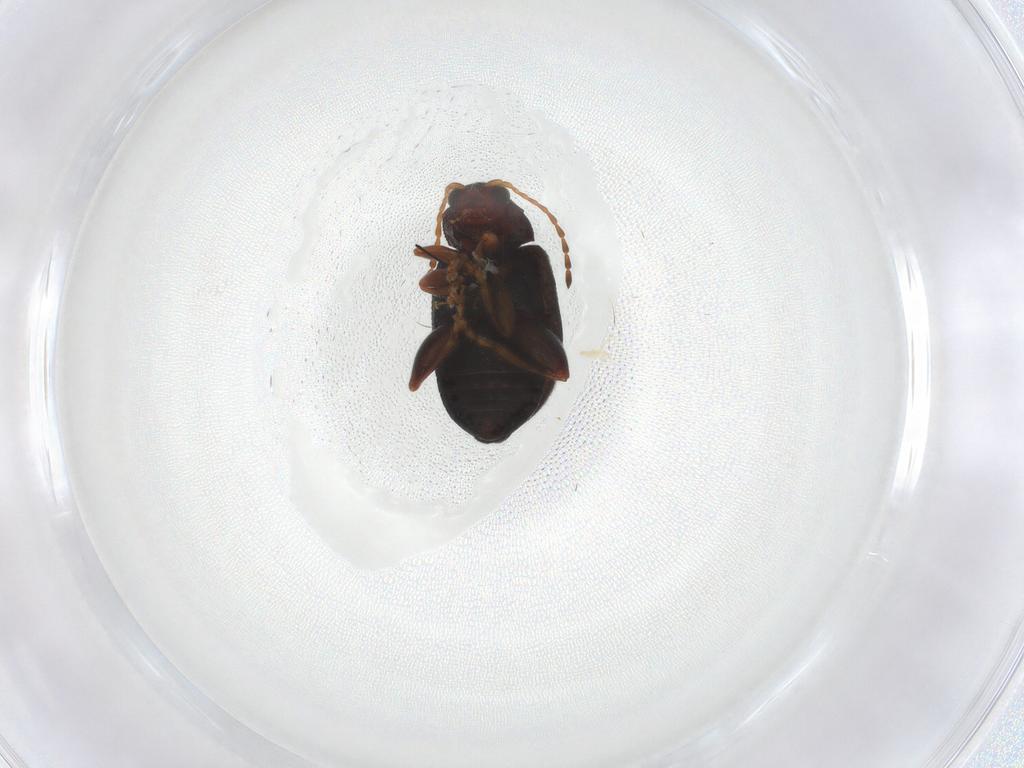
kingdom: Animalia
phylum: Arthropoda
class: Insecta
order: Coleoptera
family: Chrysomelidae
